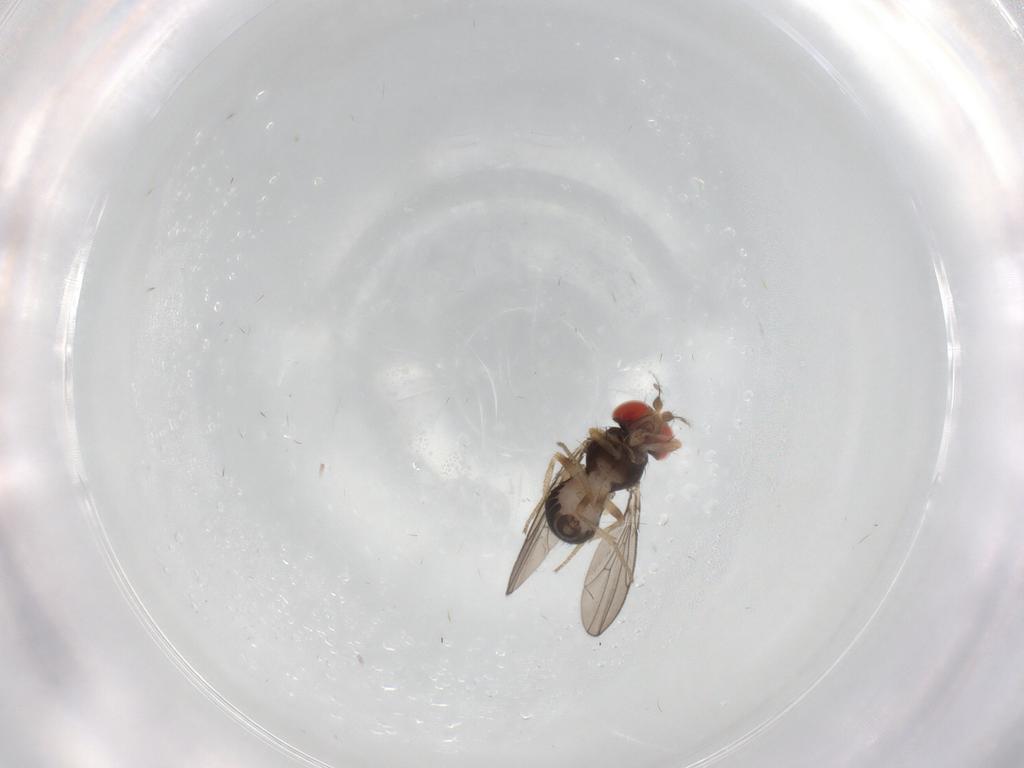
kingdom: Animalia
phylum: Arthropoda
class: Insecta
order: Diptera
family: Drosophilidae
